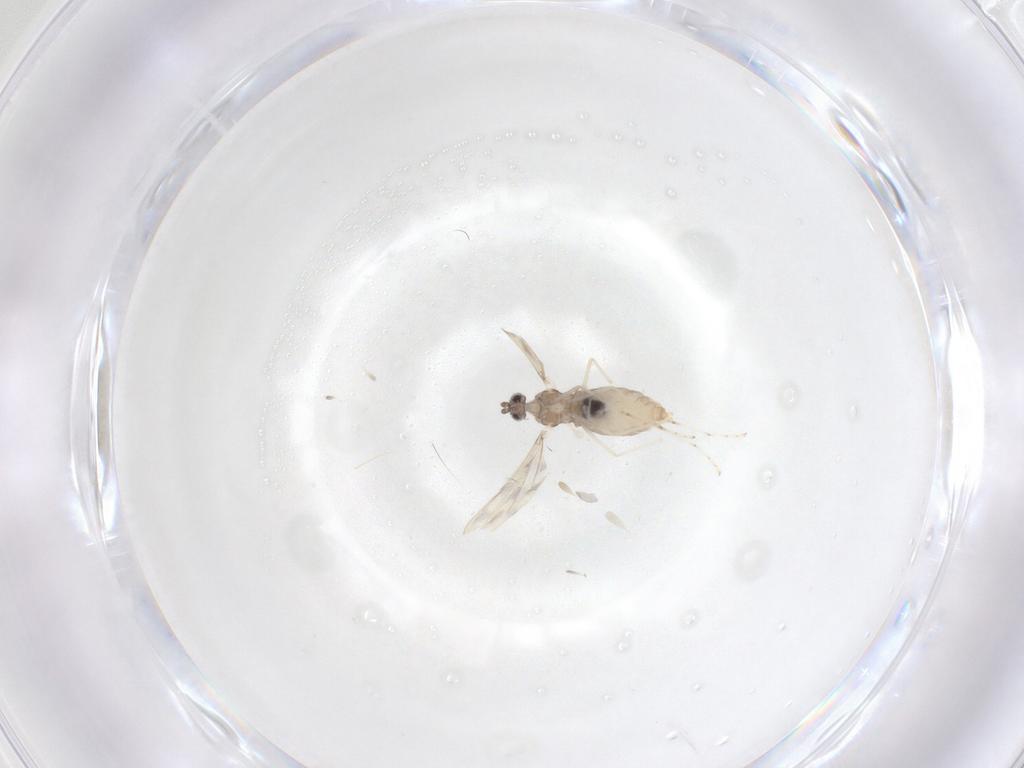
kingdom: Animalia
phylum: Arthropoda
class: Insecta
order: Diptera
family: Cecidomyiidae
